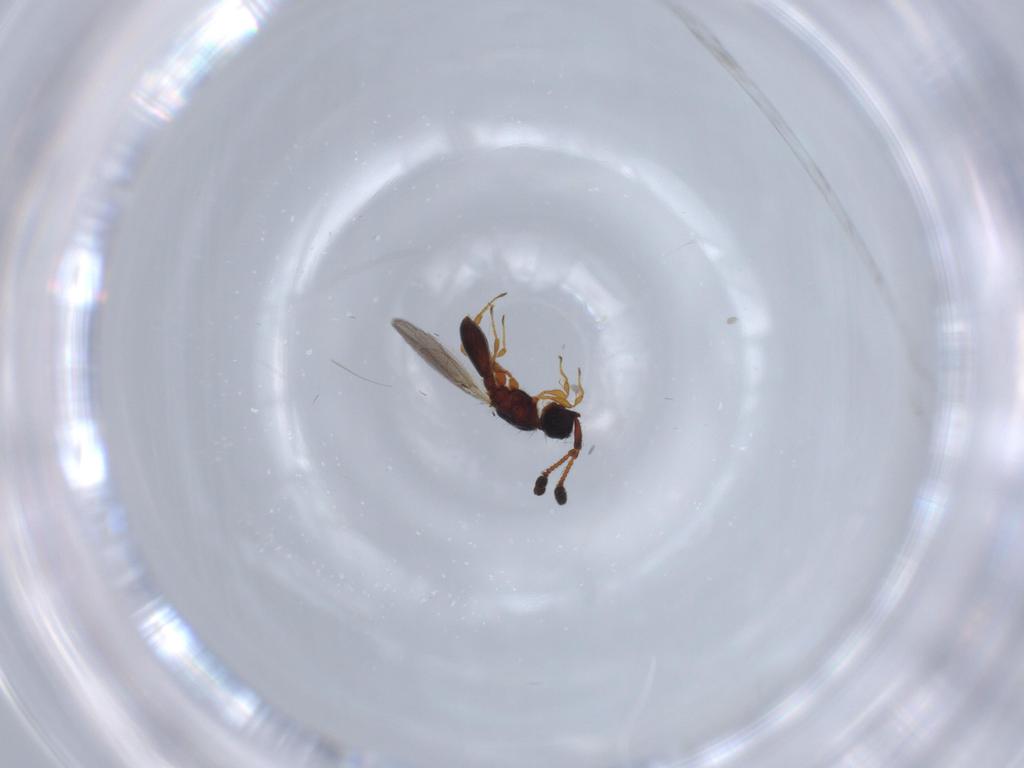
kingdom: Animalia
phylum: Arthropoda
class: Insecta
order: Hymenoptera
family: Diapriidae
